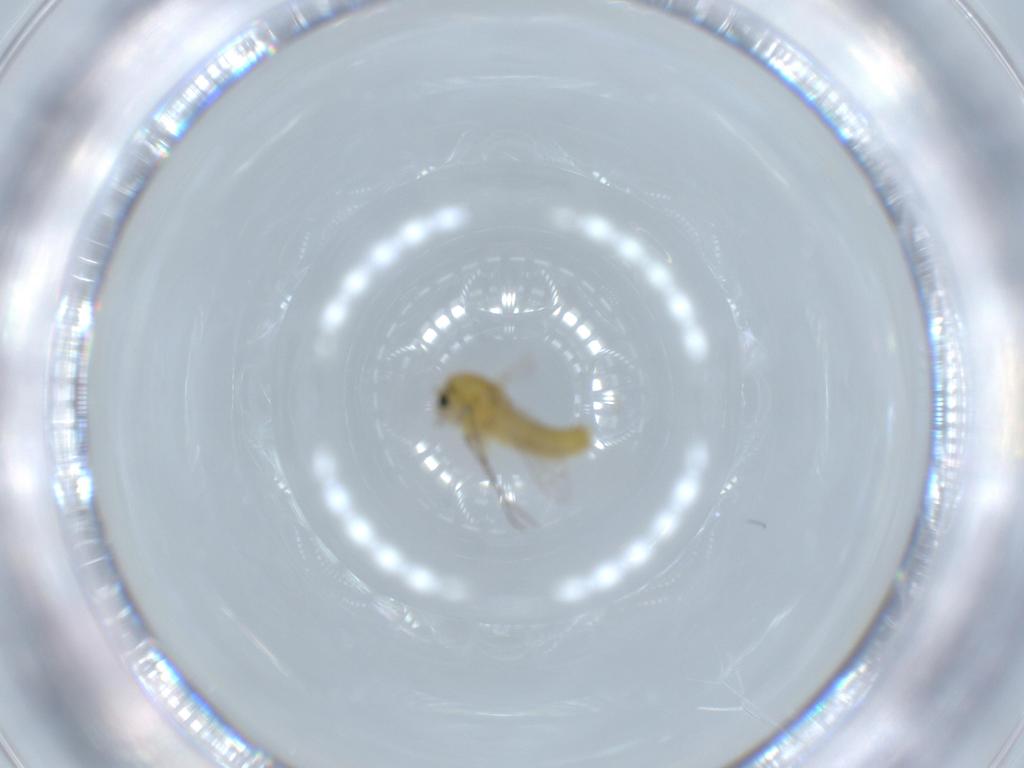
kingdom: Animalia
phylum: Arthropoda
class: Insecta
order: Diptera
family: Chironomidae
